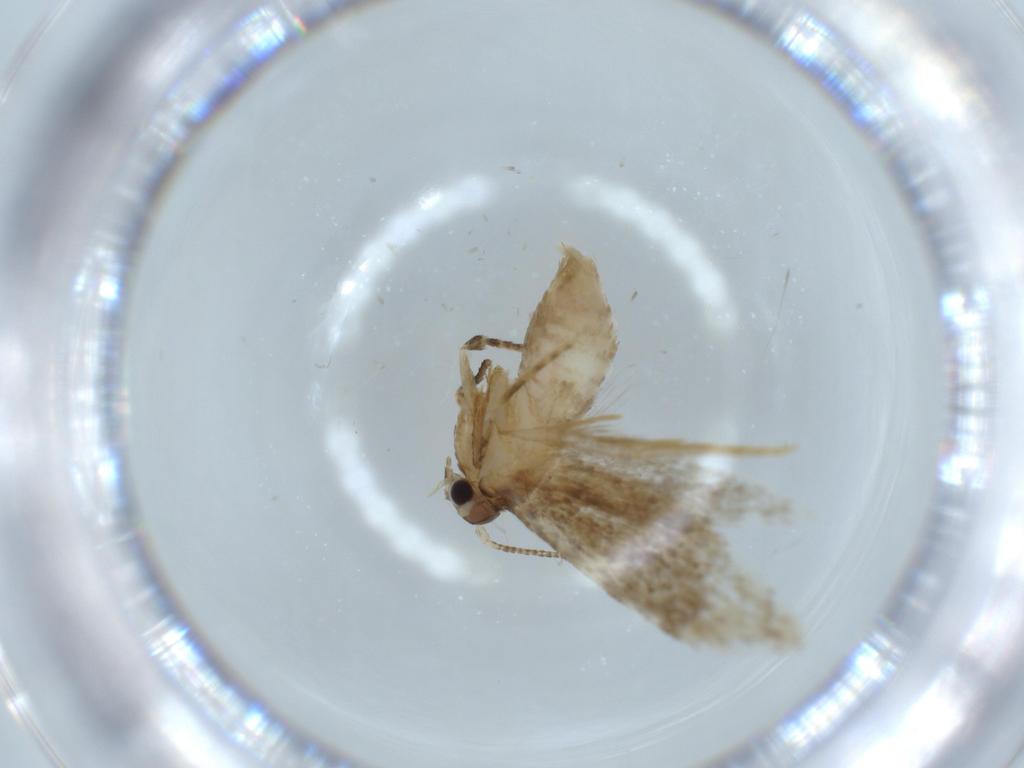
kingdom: Animalia
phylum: Arthropoda
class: Insecta
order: Lepidoptera
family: Tineidae
